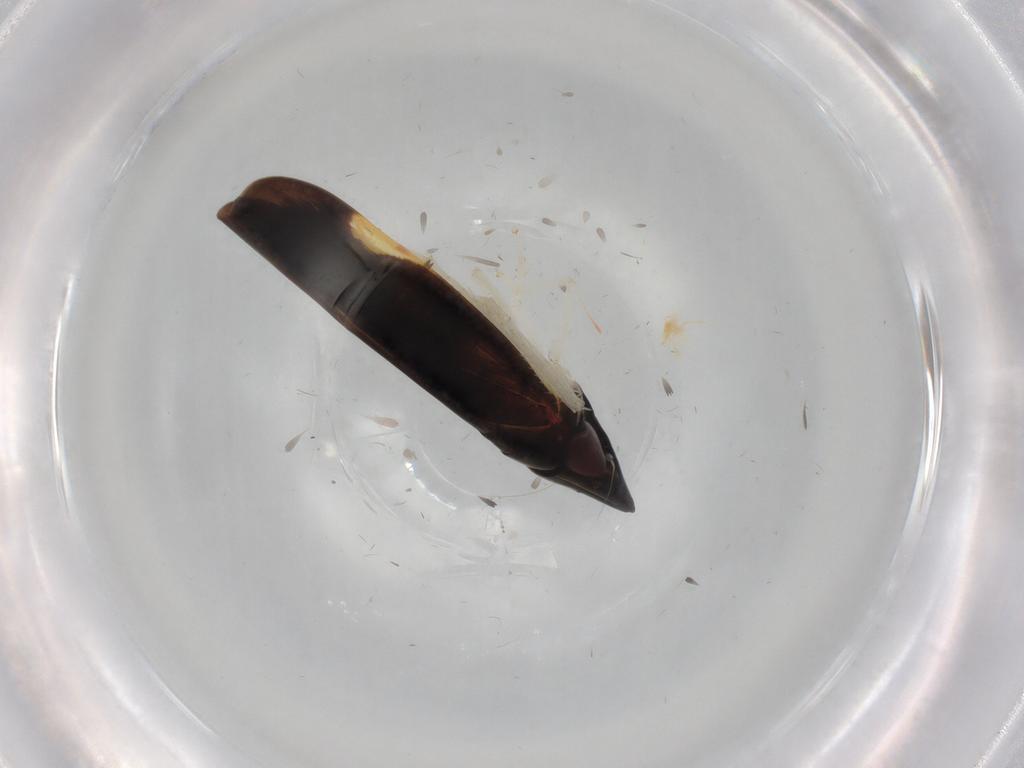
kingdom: Animalia
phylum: Arthropoda
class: Insecta
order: Hemiptera
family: Cicadellidae
